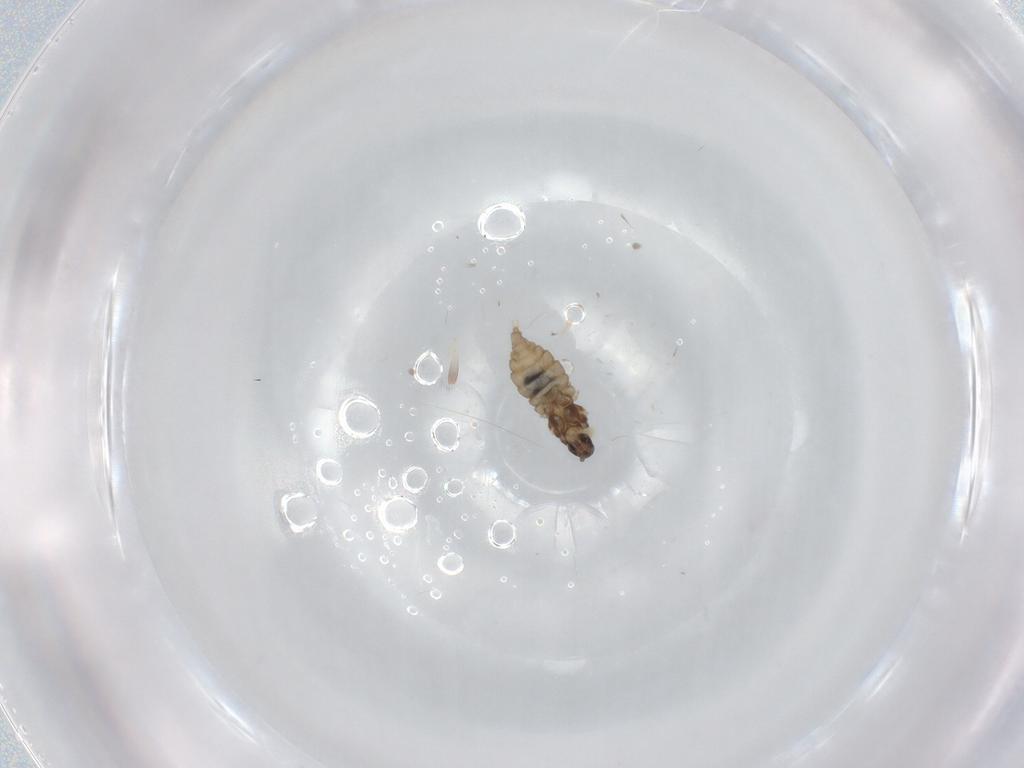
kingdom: Animalia
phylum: Arthropoda
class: Insecta
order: Diptera
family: Cecidomyiidae
